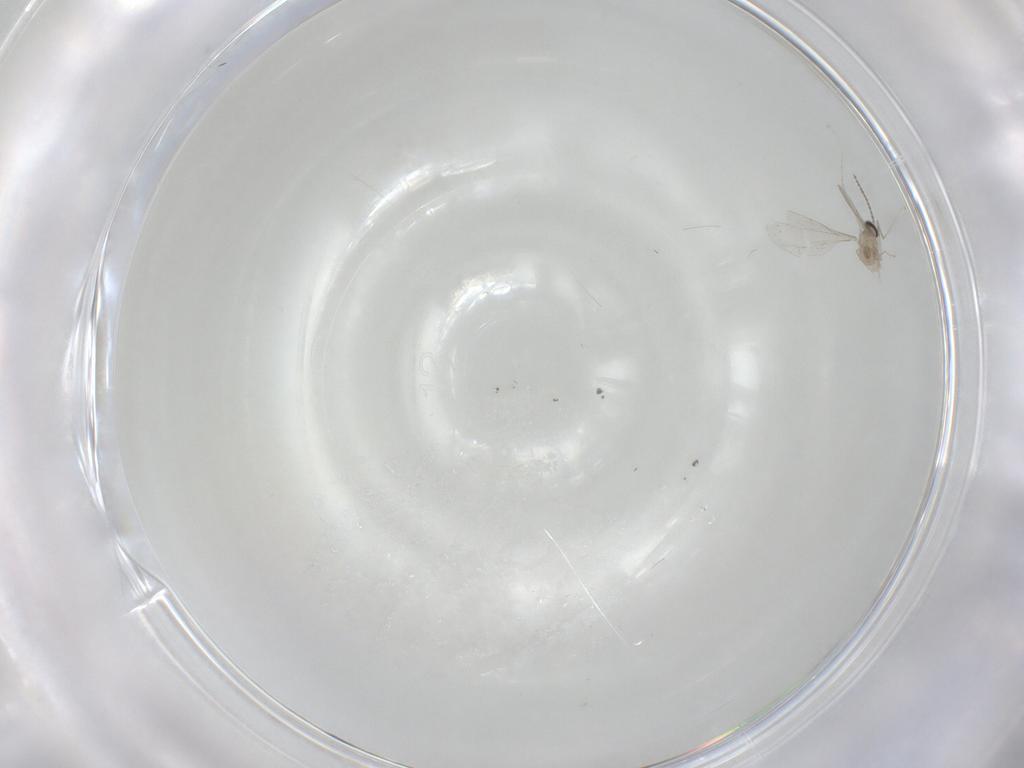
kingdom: Animalia
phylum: Arthropoda
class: Insecta
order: Diptera
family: Cecidomyiidae
